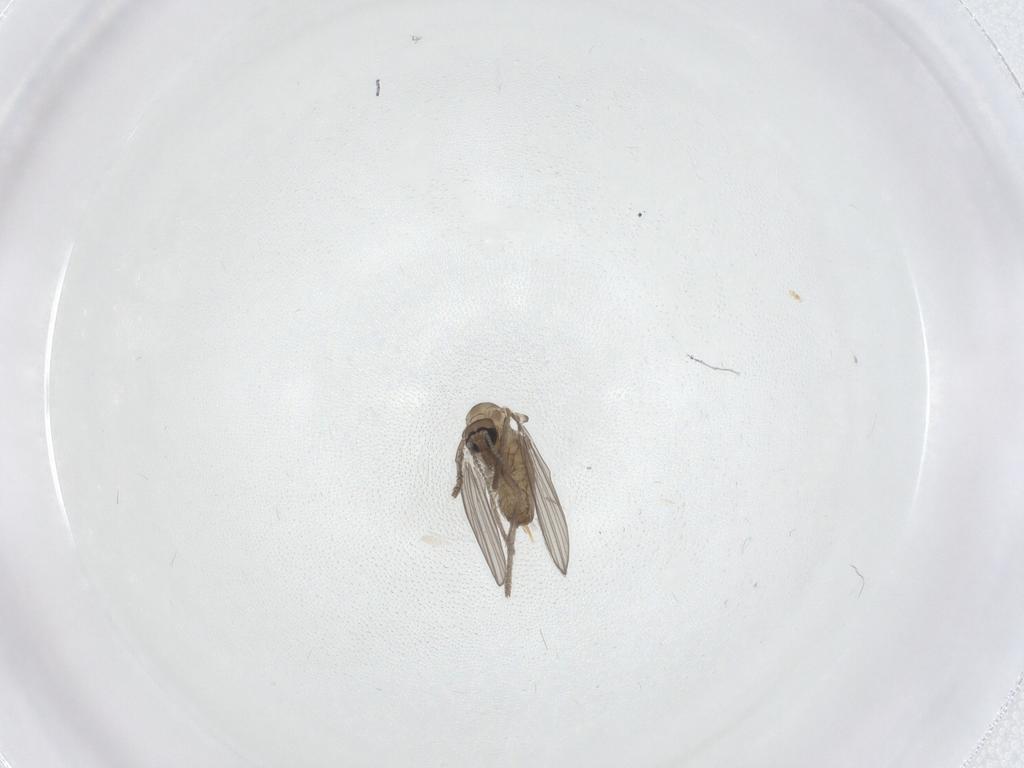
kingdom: Animalia
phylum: Arthropoda
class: Insecta
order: Diptera
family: Psychodidae
